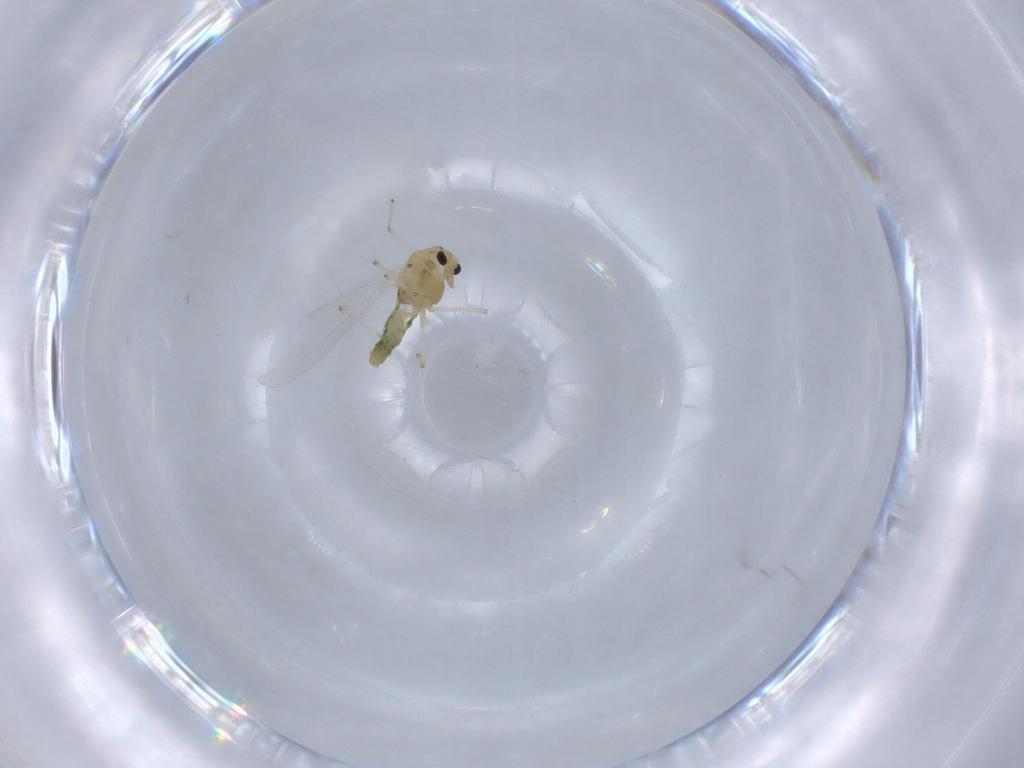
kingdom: Animalia
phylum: Arthropoda
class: Insecta
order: Diptera
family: Chironomidae
